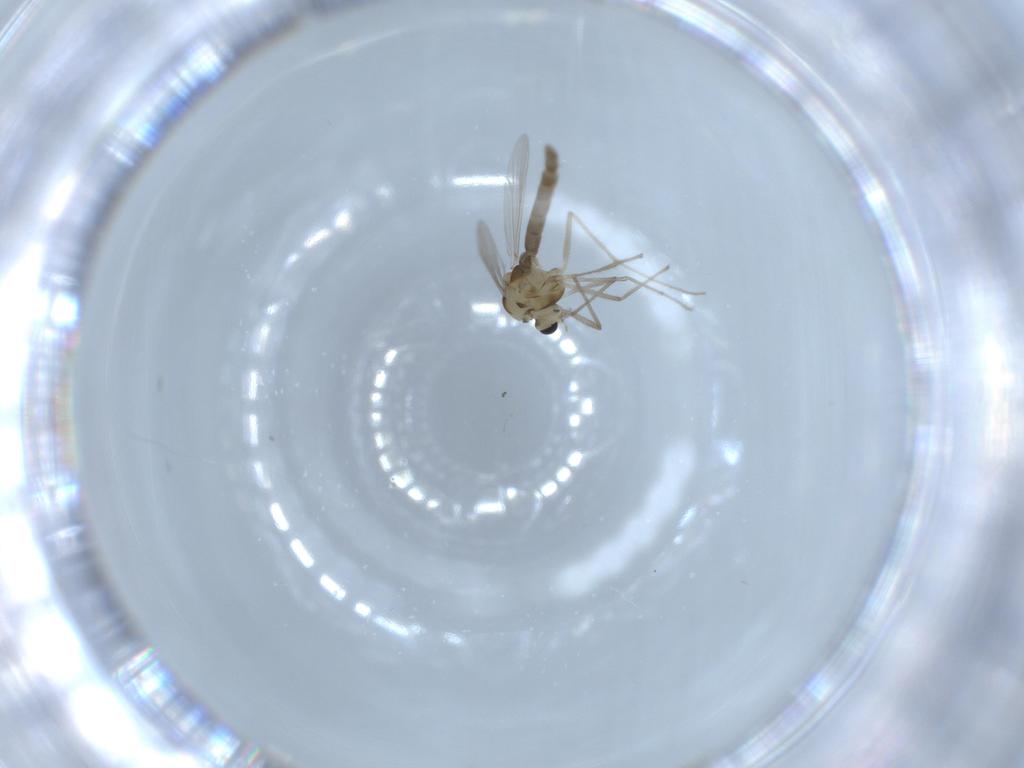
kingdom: Animalia
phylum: Arthropoda
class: Insecta
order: Diptera
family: Chironomidae
